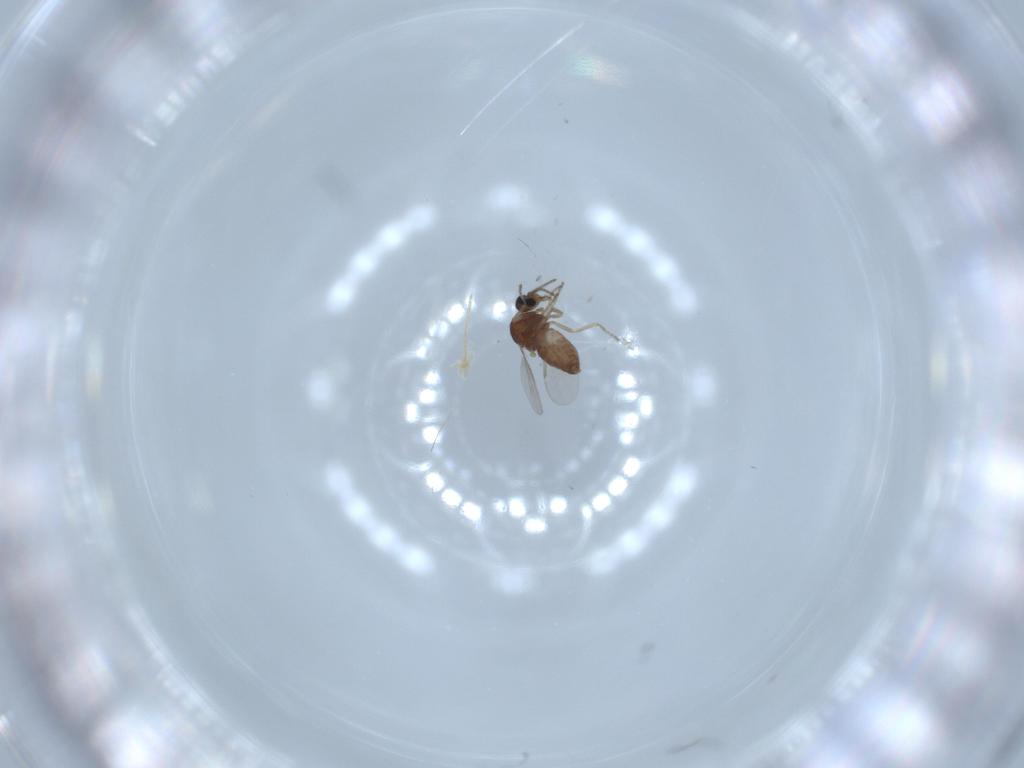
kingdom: Animalia
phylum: Arthropoda
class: Insecta
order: Diptera
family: Ceratopogonidae
